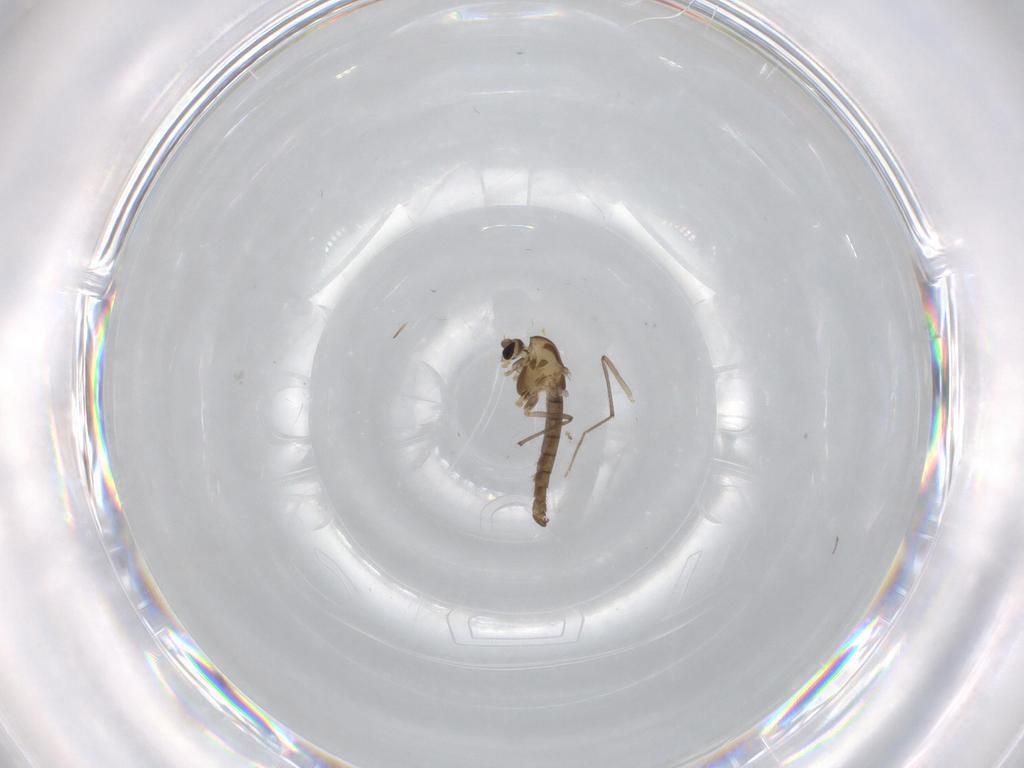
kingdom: Animalia
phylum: Arthropoda
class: Insecta
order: Diptera
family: Chironomidae
